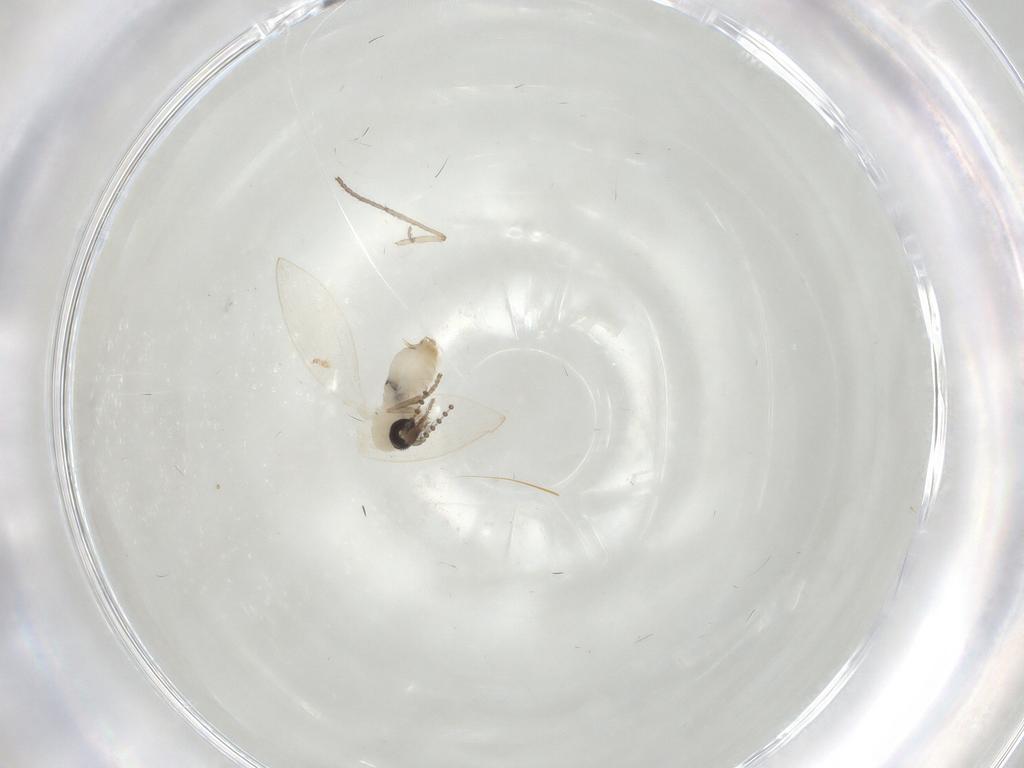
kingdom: Animalia
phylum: Arthropoda
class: Insecta
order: Diptera
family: Psychodidae
